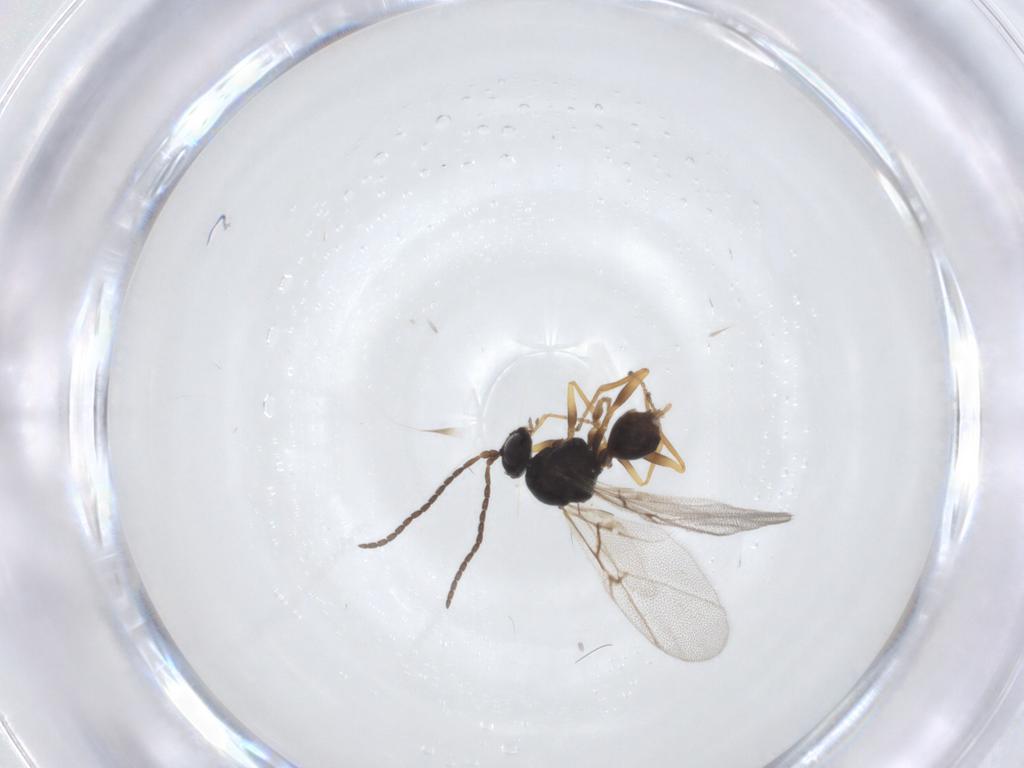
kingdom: Animalia
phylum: Arthropoda
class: Insecta
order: Hymenoptera
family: Cynipidae
